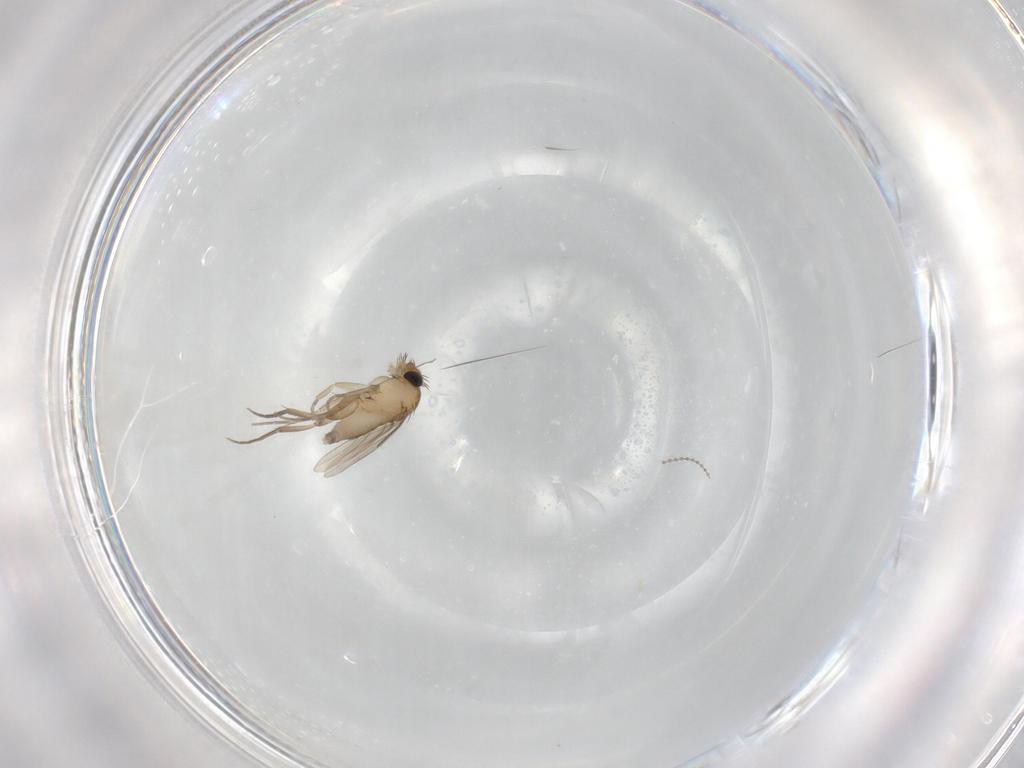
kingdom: Animalia
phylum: Arthropoda
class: Insecta
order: Diptera
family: Phoridae
